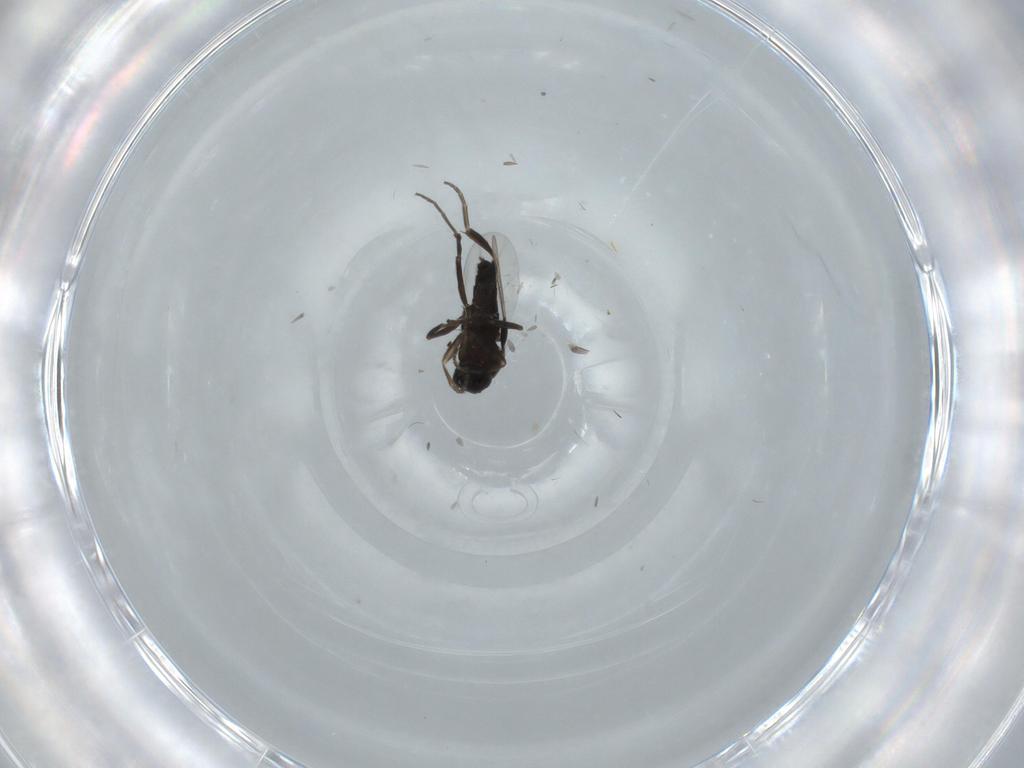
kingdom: Animalia
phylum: Arthropoda
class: Insecta
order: Diptera
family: Phoridae
